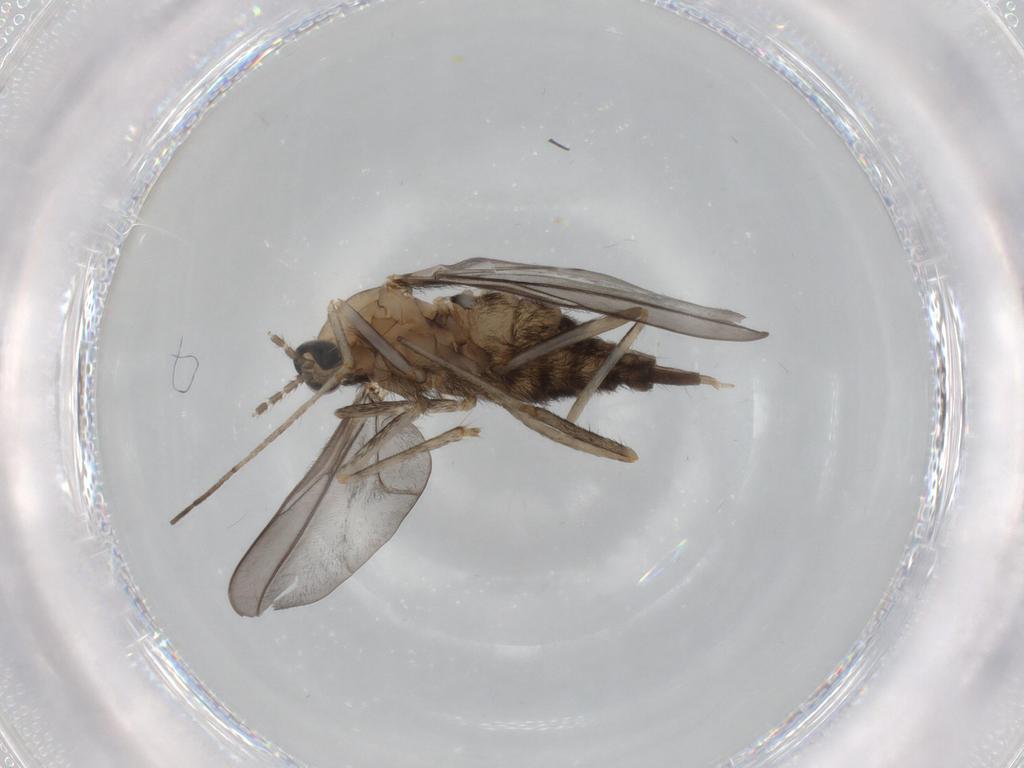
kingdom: Animalia
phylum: Arthropoda
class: Insecta
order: Diptera
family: Cecidomyiidae
